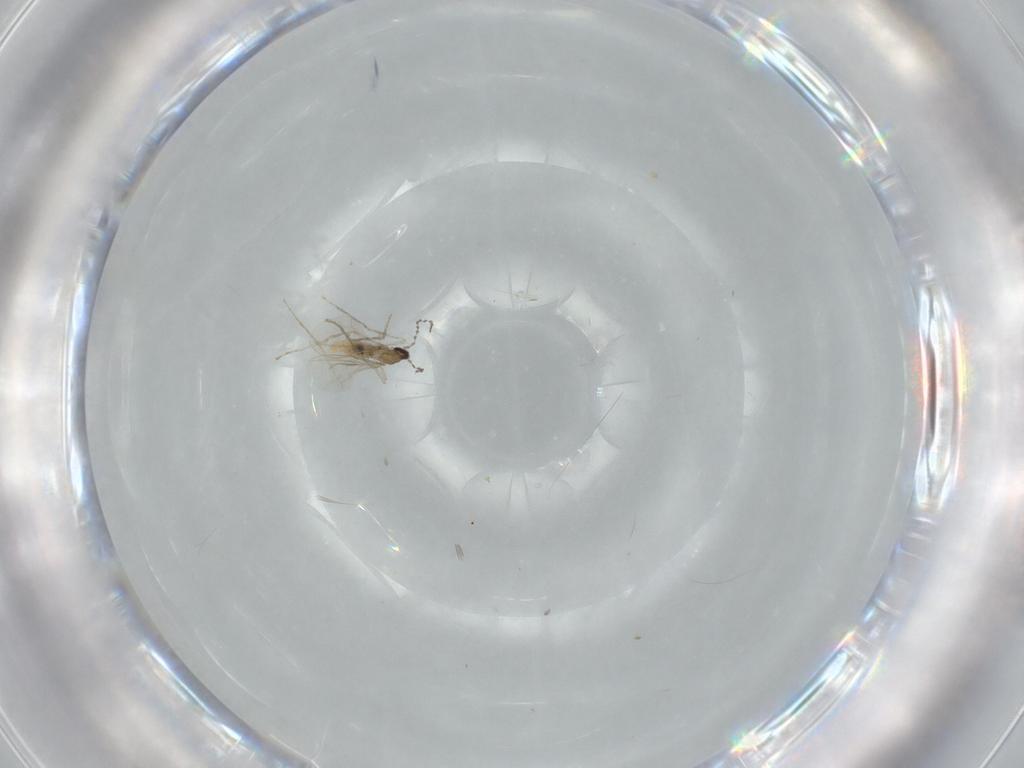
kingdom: Animalia
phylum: Arthropoda
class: Insecta
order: Diptera
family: Cecidomyiidae
